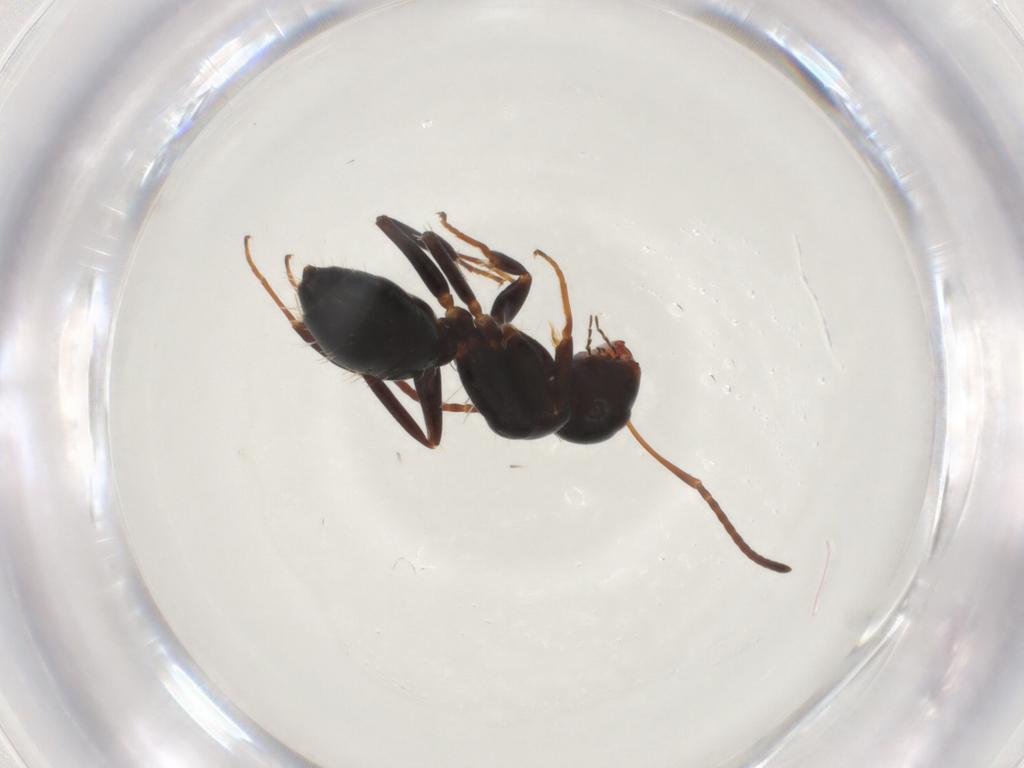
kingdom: Animalia
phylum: Arthropoda
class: Insecta
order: Hymenoptera
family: Formicidae
